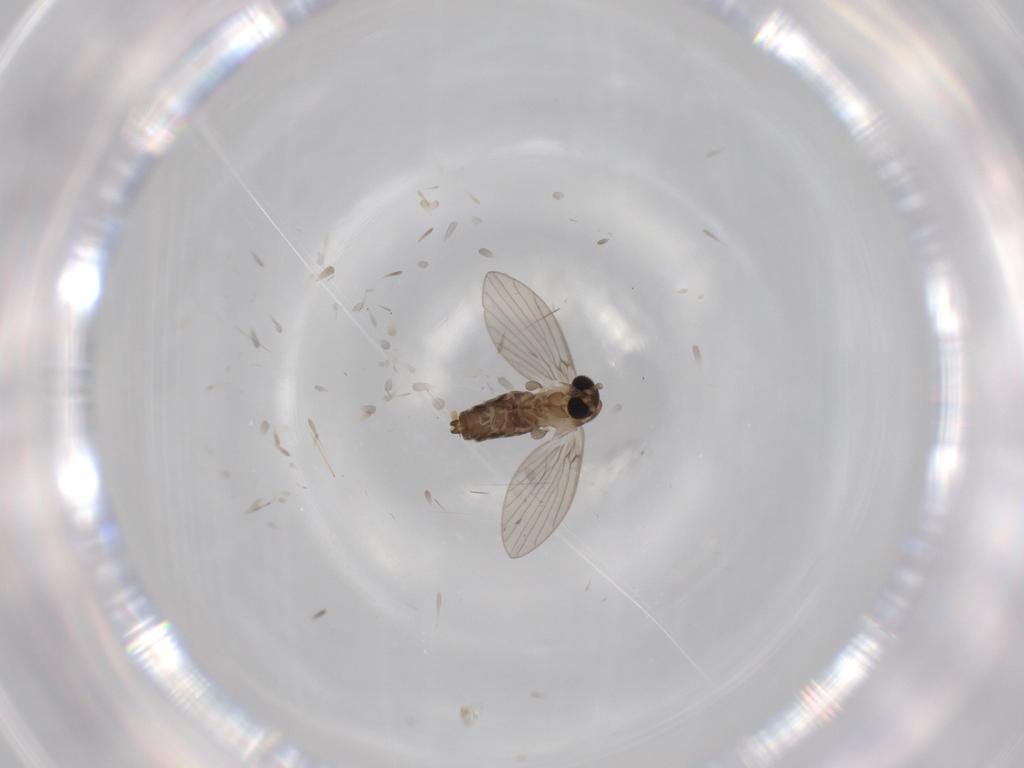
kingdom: Animalia
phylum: Arthropoda
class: Insecta
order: Diptera
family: Psychodidae
